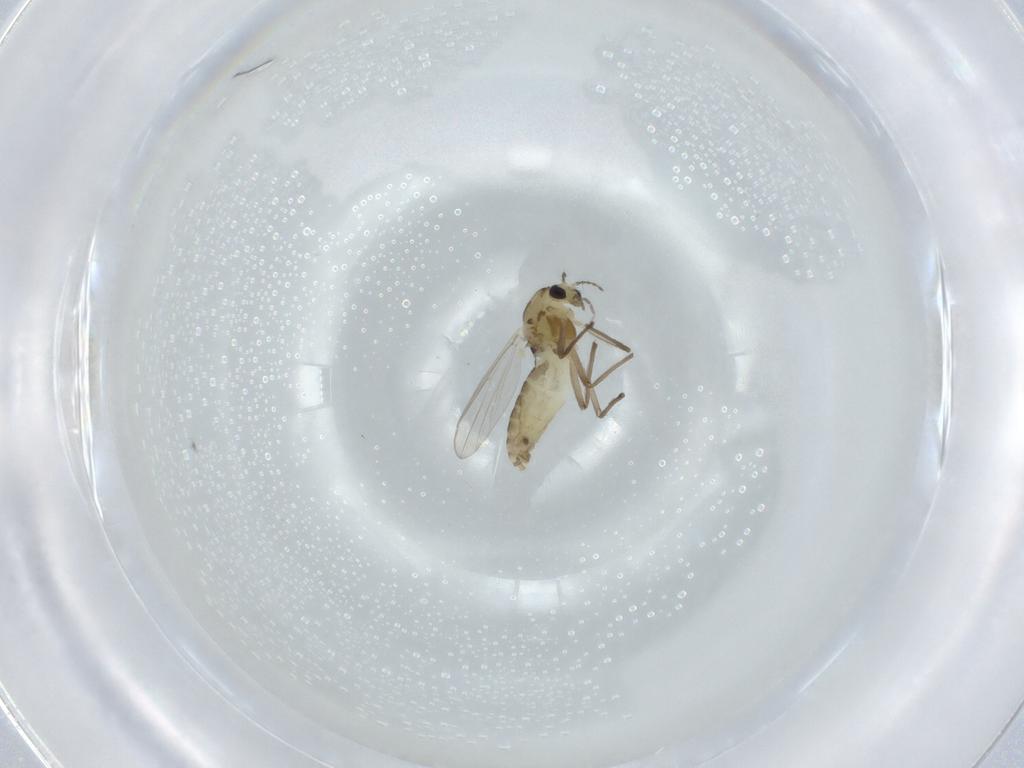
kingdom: Animalia
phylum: Arthropoda
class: Insecta
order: Diptera
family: Chironomidae
